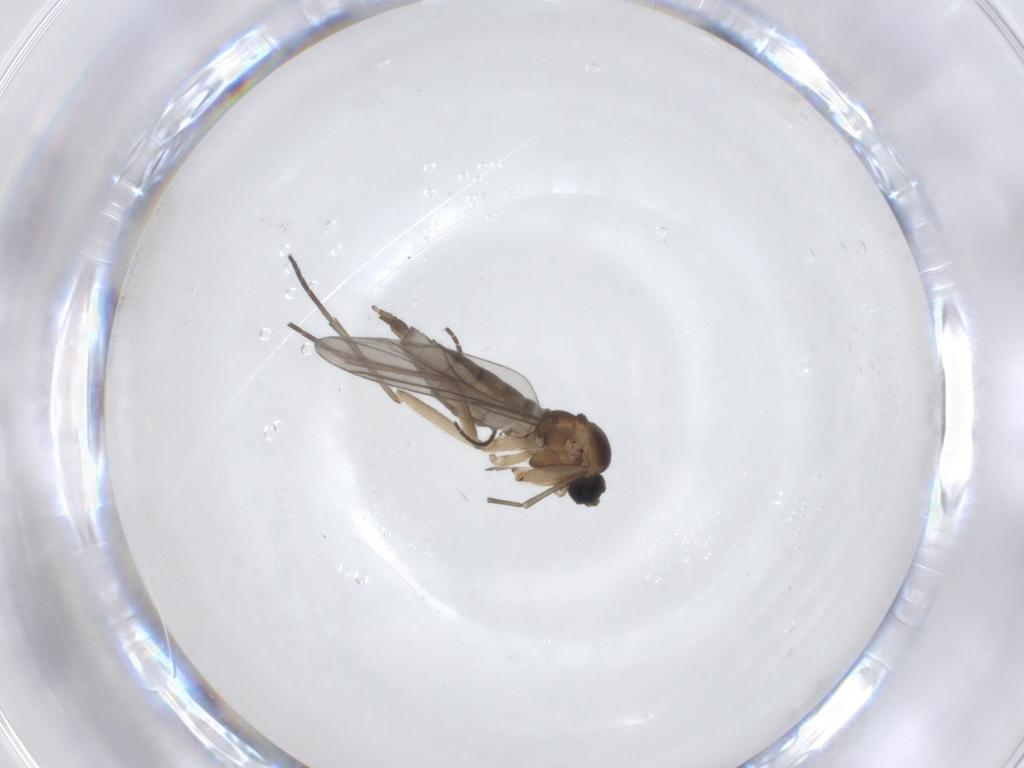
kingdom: Animalia
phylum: Arthropoda
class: Insecta
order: Diptera
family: Sciaridae
